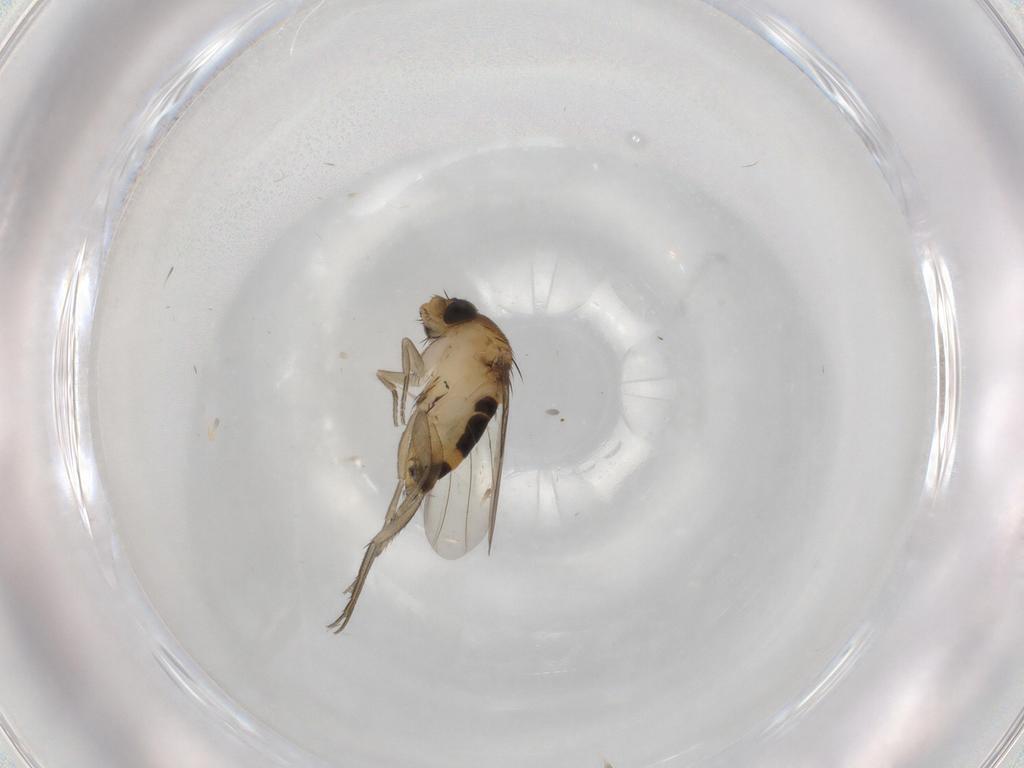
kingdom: Animalia
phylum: Arthropoda
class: Insecta
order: Diptera
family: Phoridae
